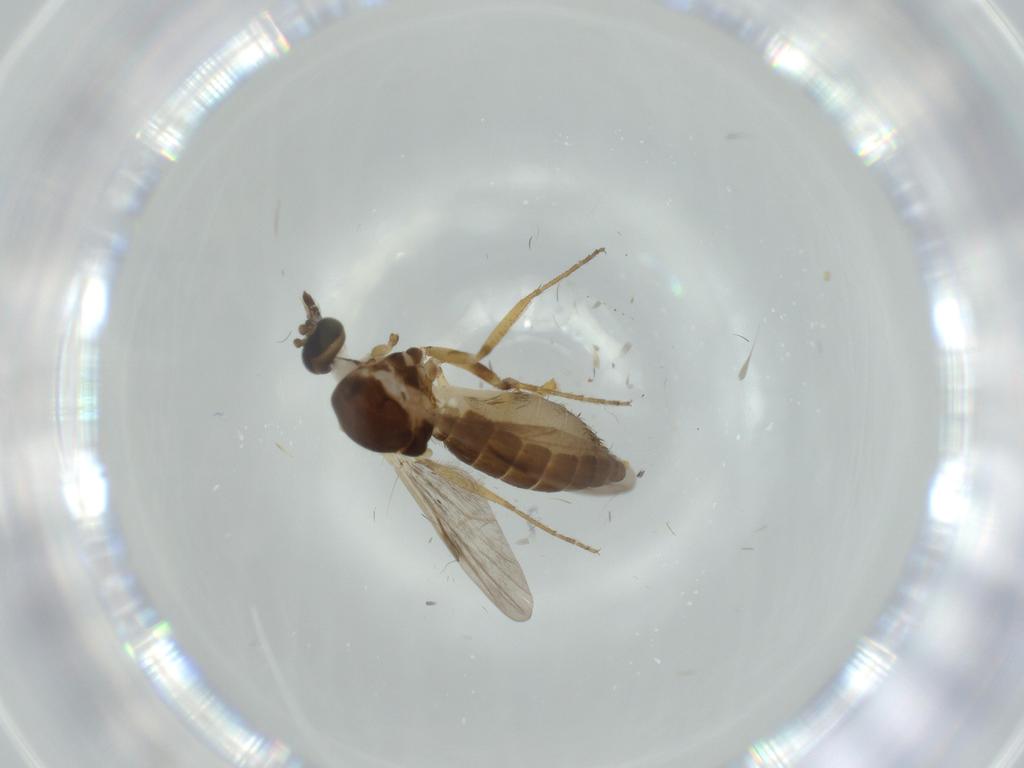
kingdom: Animalia
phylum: Arthropoda
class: Insecta
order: Diptera
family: Ceratopogonidae
